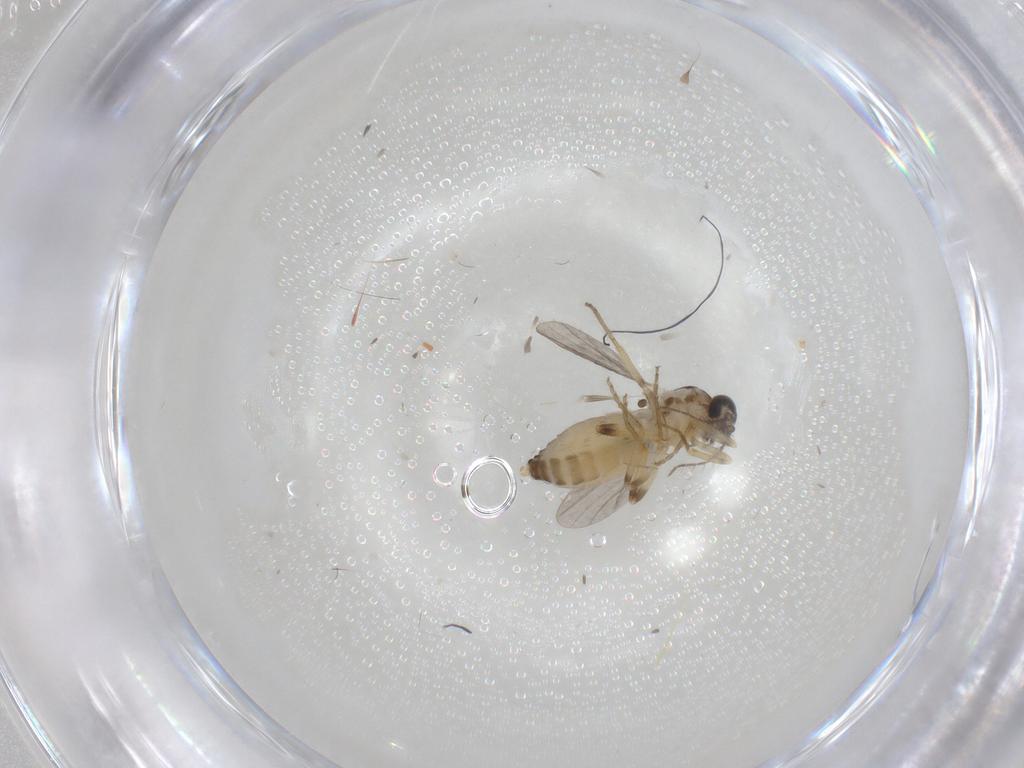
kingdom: Animalia
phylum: Arthropoda
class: Insecta
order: Diptera
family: Ceratopogonidae
